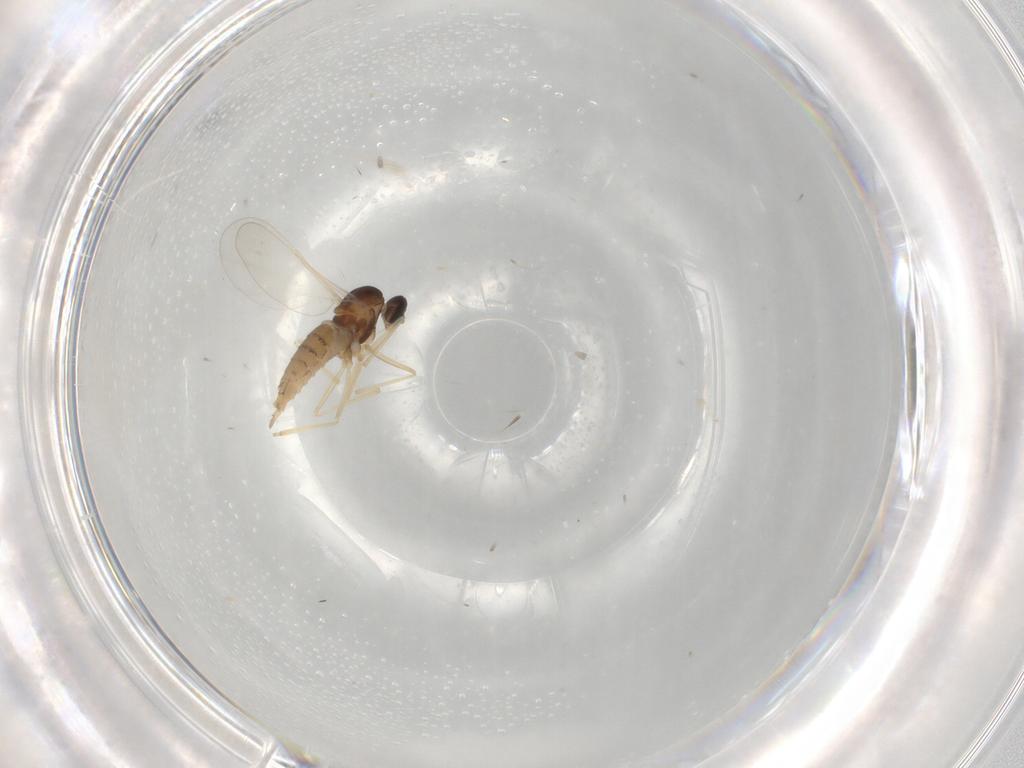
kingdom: Animalia
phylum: Arthropoda
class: Insecta
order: Diptera
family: Cecidomyiidae
